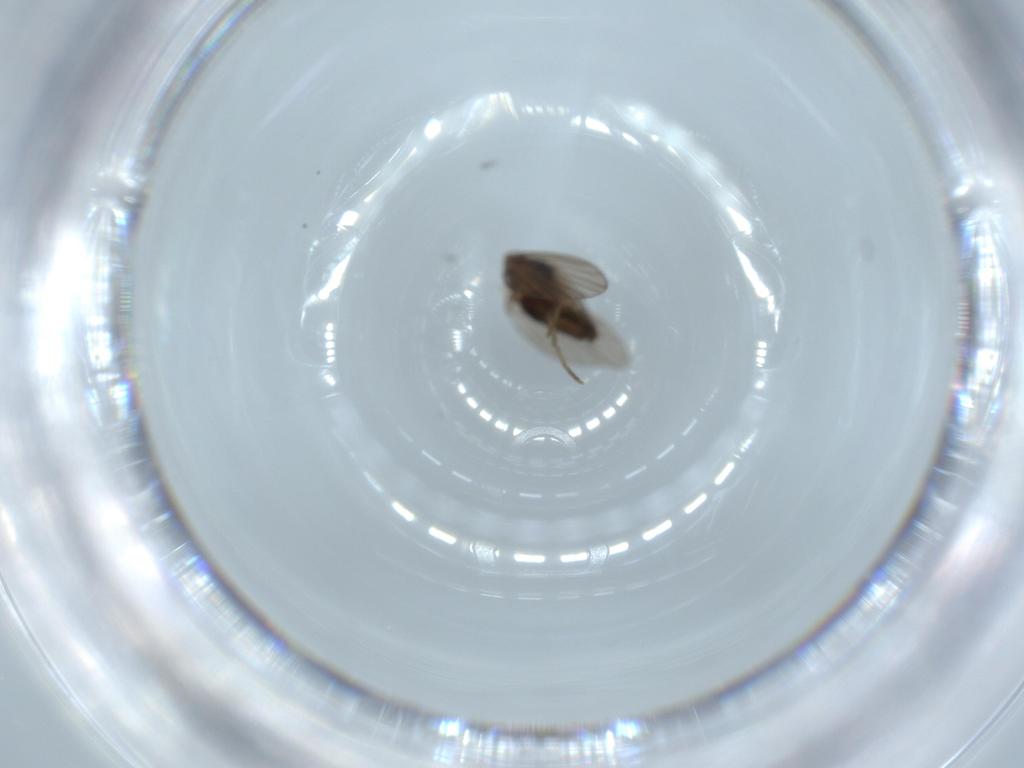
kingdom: Animalia
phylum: Arthropoda
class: Insecta
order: Diptera
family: Psychodidae
